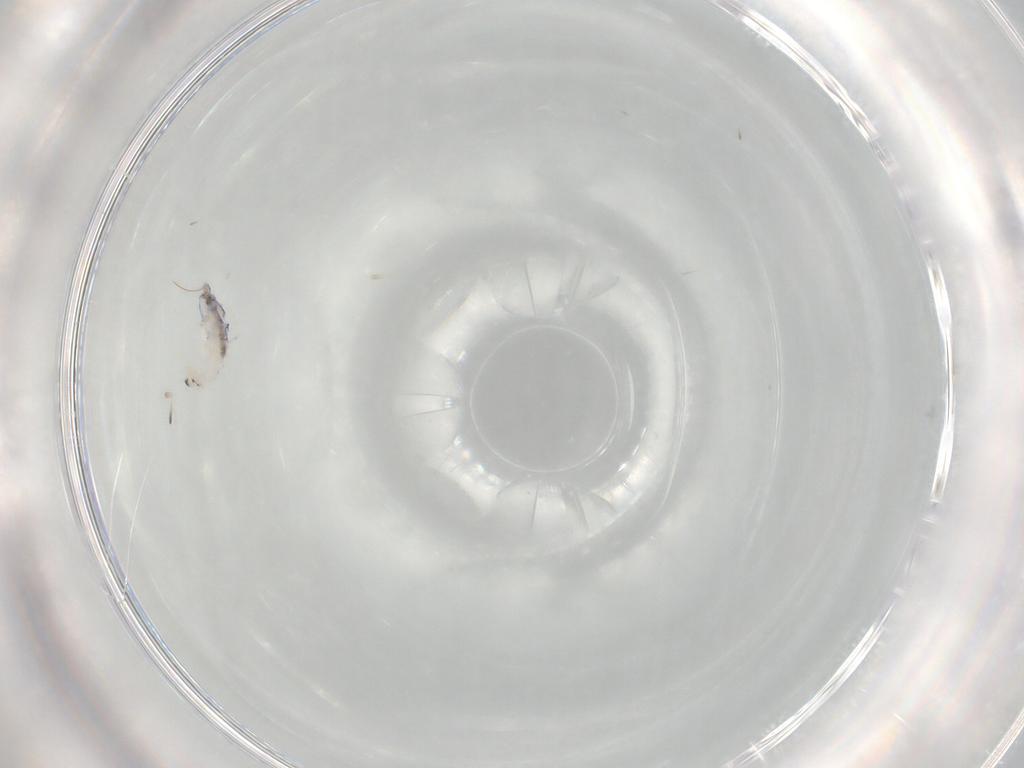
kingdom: Animalia
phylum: Arthropoda
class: Collembola
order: Entomobryomorpha
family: Entomobryidae
